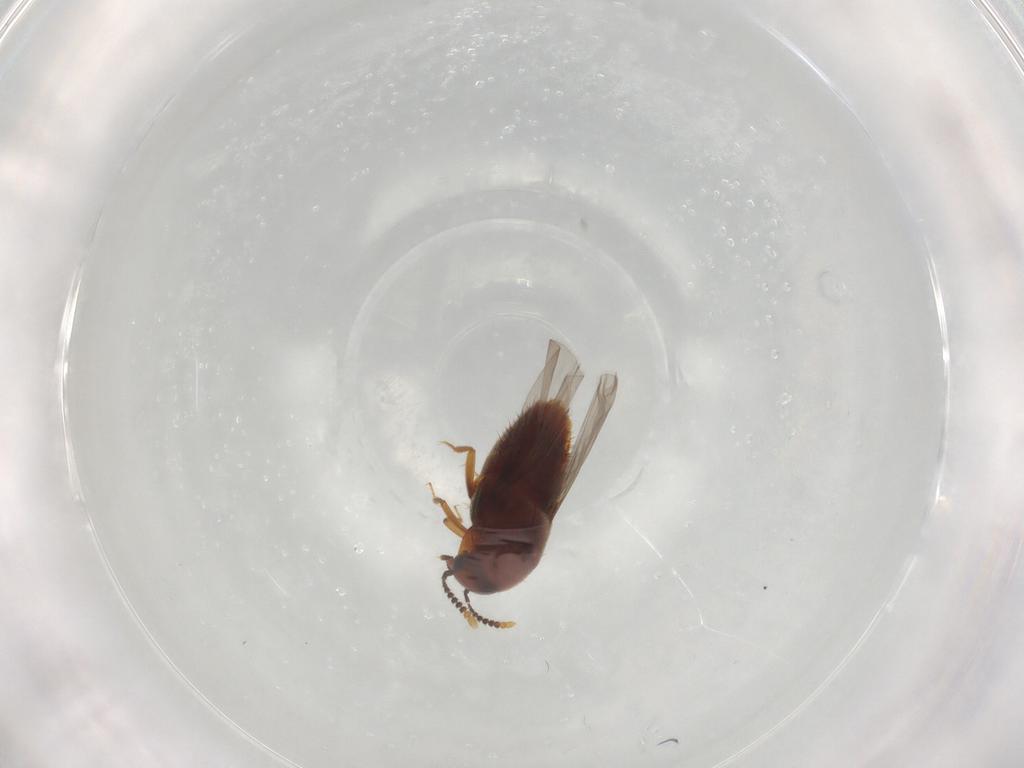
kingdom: Animalia
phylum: Arthropoda
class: Insecta
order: Coleoptera
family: Staphylinidae
